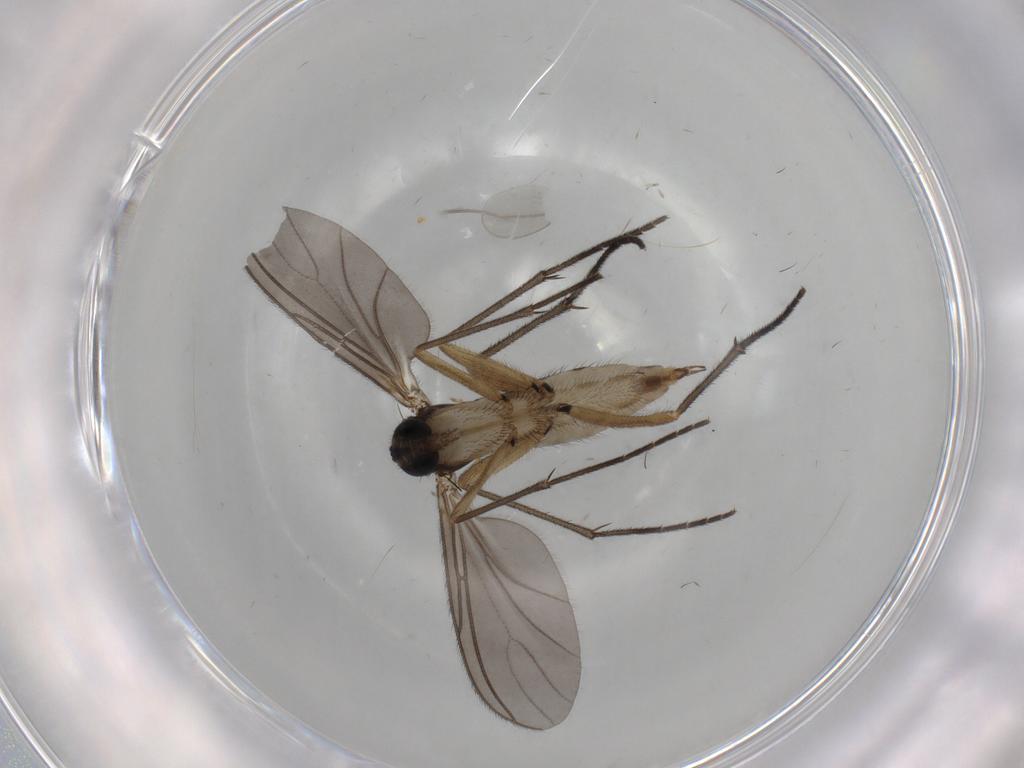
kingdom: Animalia
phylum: Arthropoda
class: Insecta
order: Diptera
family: Sciaridae
